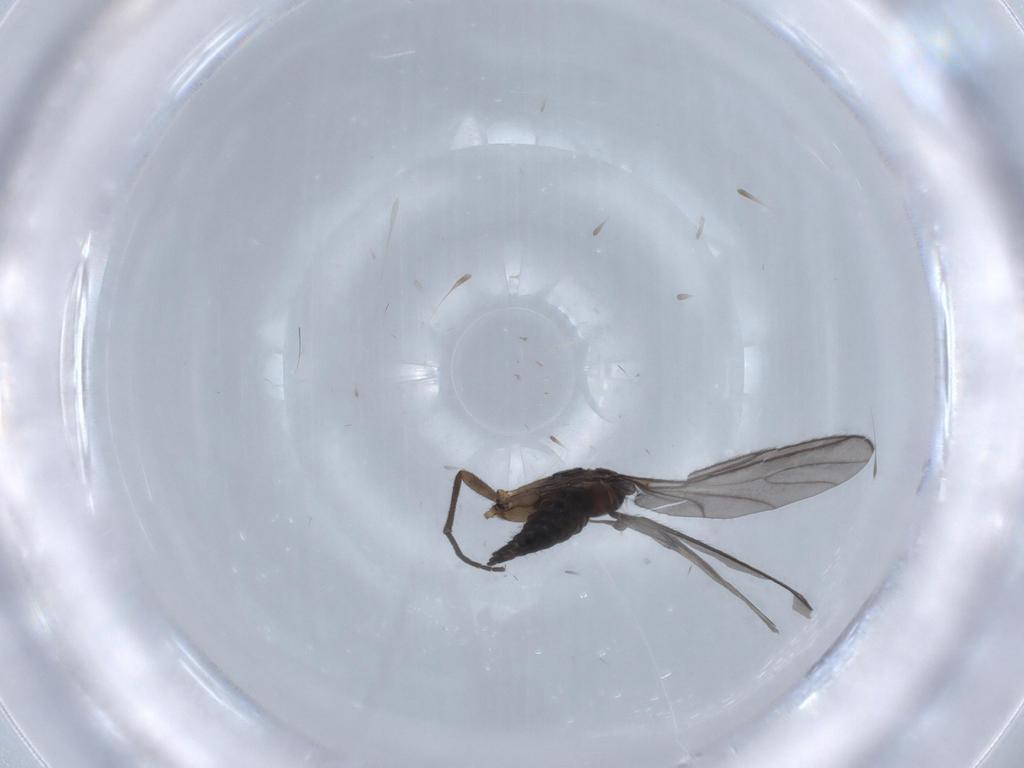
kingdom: Animalia
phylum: Arthropoda
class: Insecta
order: Diptera
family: Sciaridae
